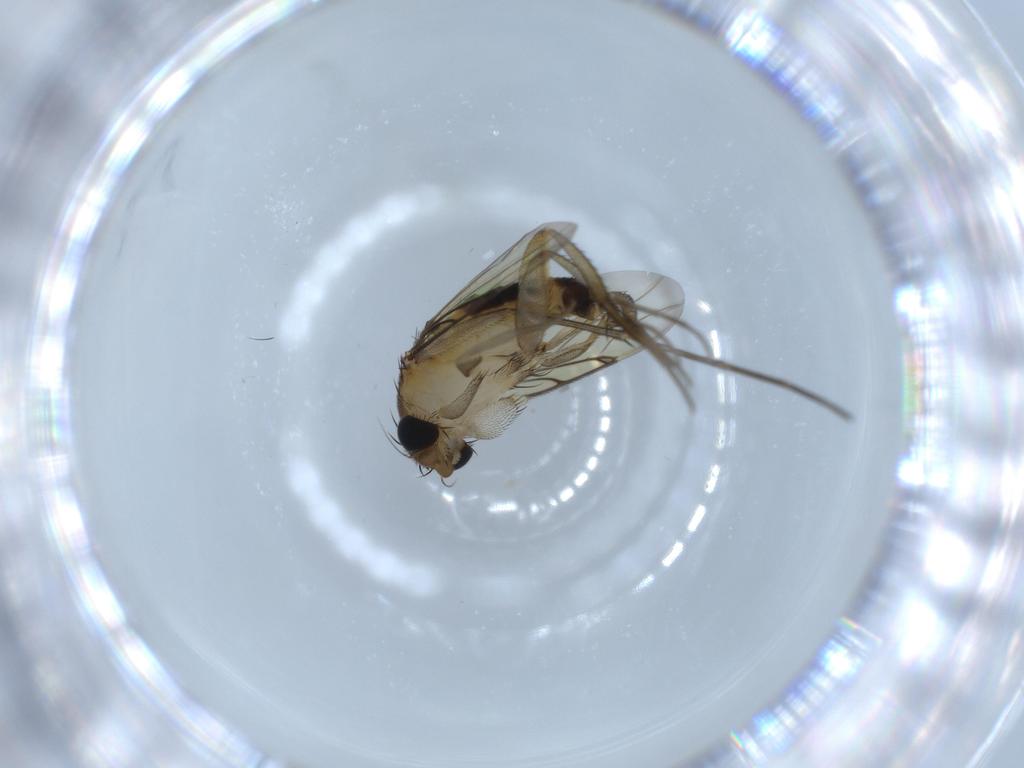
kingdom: Animalia
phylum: Arthropoda
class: Insecta
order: Diptera
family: Mycetophilidae
